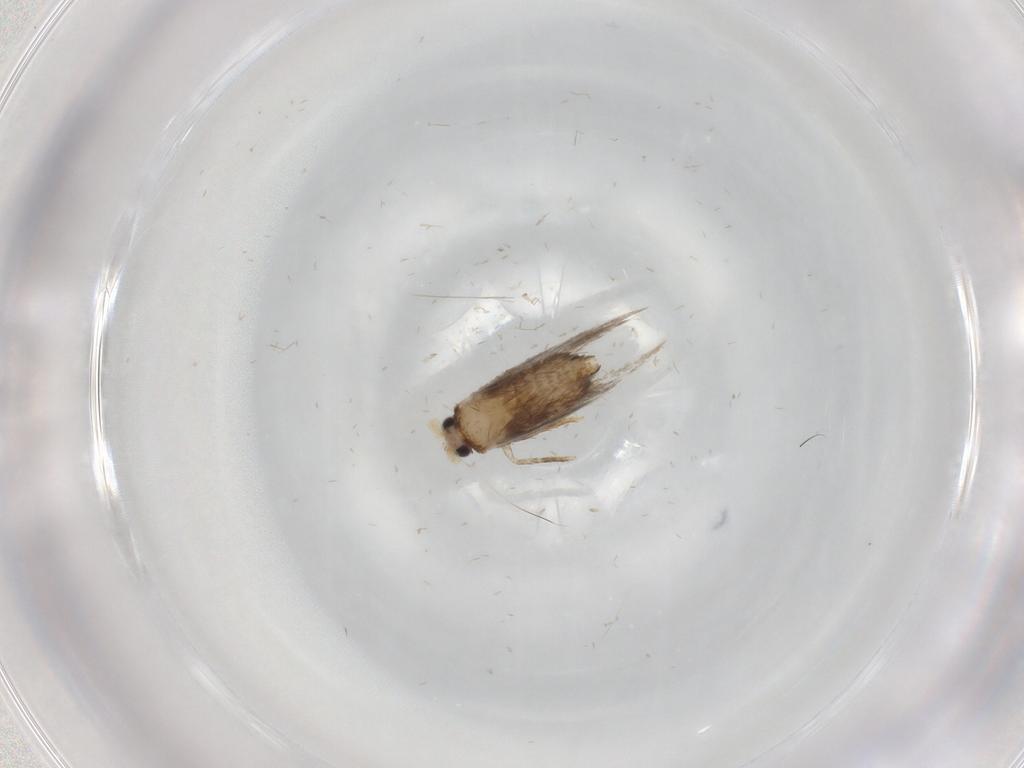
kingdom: Animalia
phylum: Arthropoda
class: Insecta
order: Lepidoptera
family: Nepticulidae
